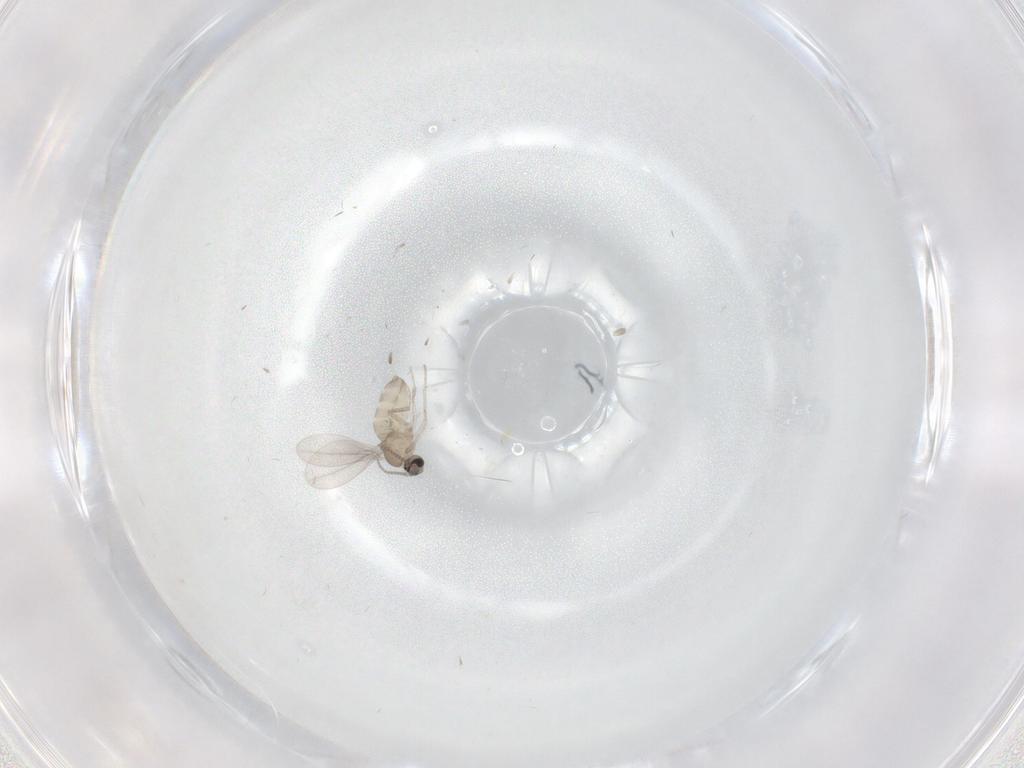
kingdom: Animalia
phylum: Arthropoda
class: Insecta
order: Diptera
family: Cecidomyiidae
